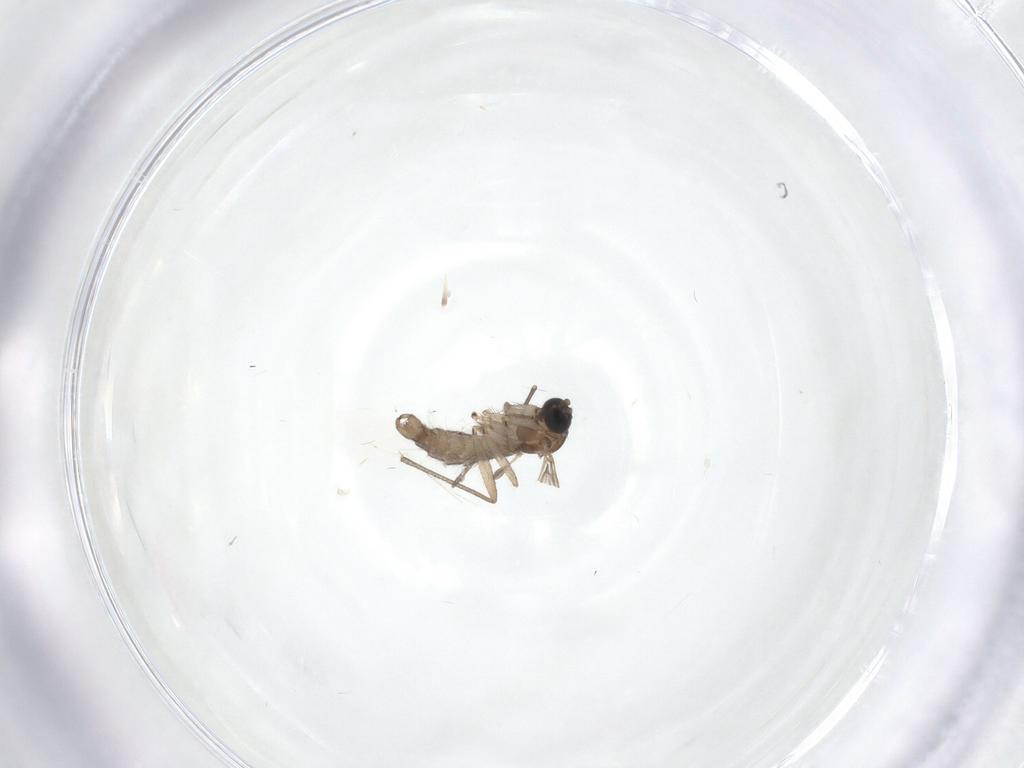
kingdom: Animalia
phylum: Arthropoda
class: Insecta
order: Diptera
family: Sciaridae
